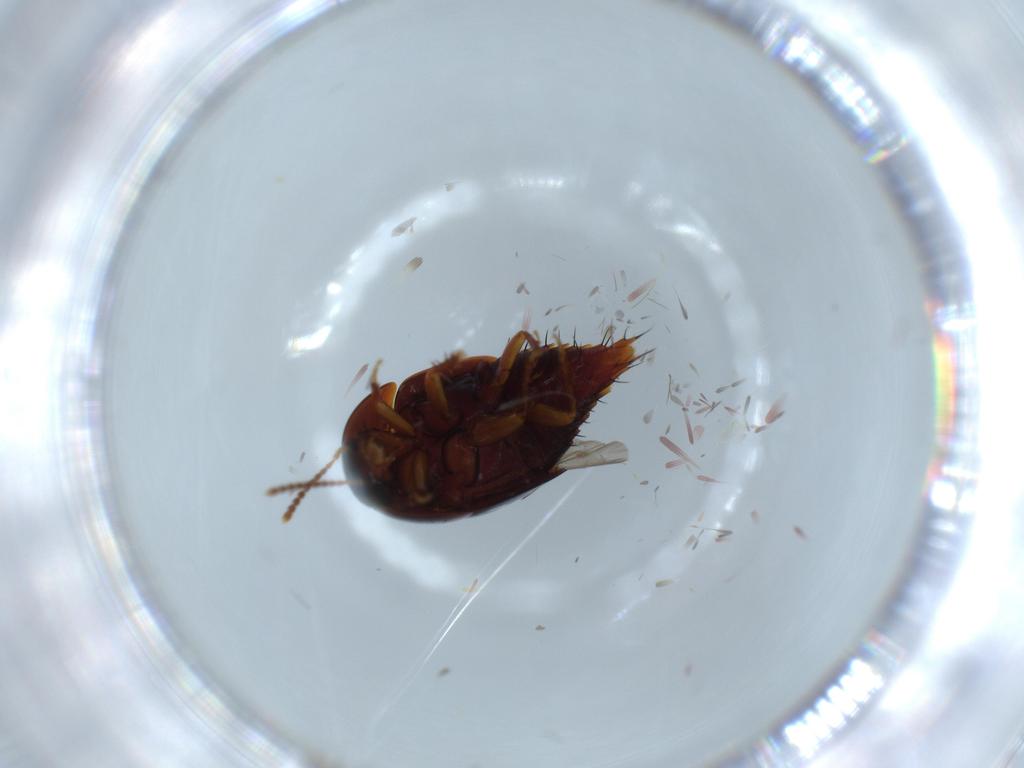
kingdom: Animalia
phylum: Arthropoda
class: Insecta
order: Coleoptera
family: Staphylinidae
